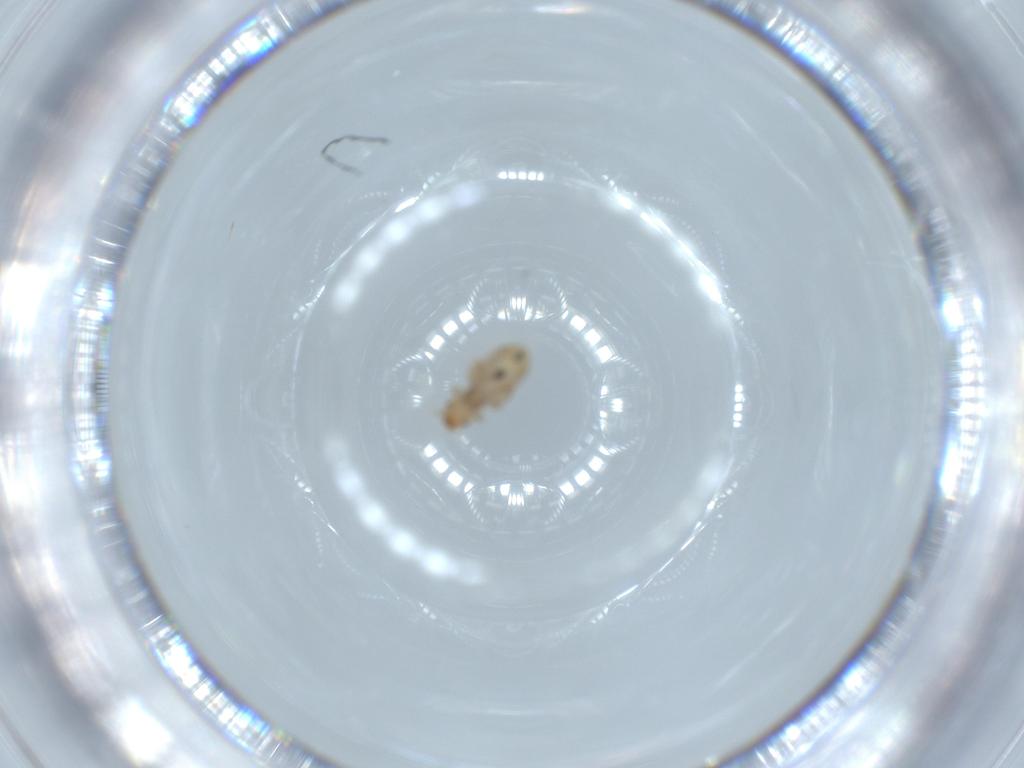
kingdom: Animalia
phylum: Arthropoda
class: Insecta
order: Psocodea
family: Liposcelididae
